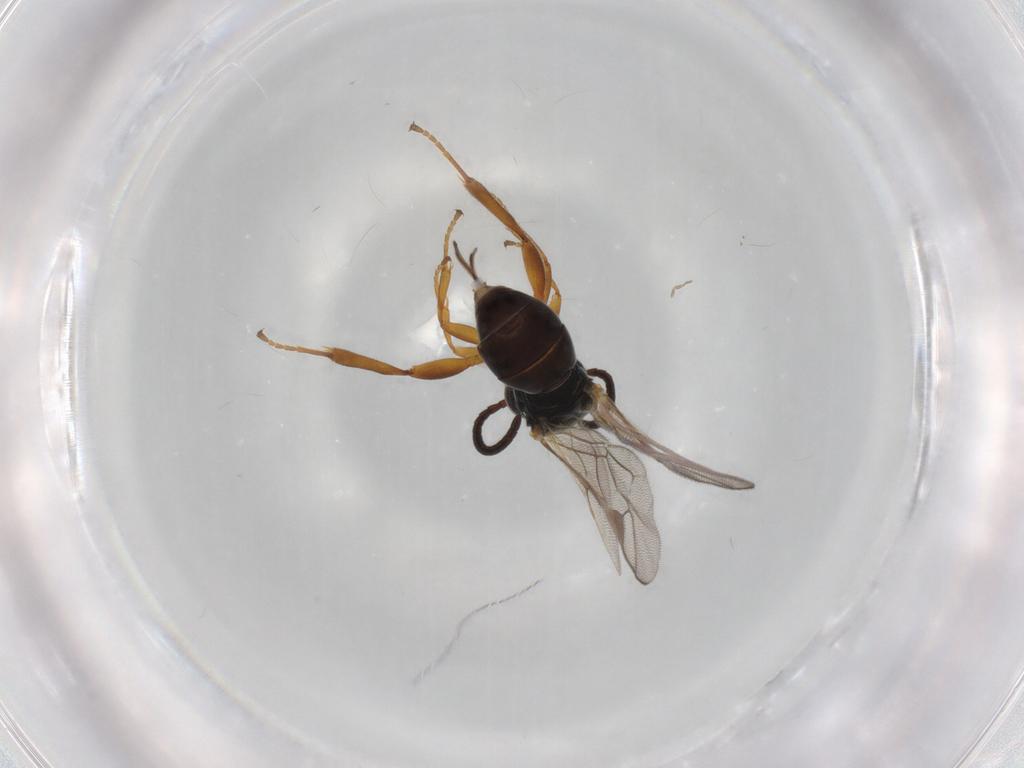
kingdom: Animalia
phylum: Arthropoda
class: Insecta
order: Hymenoptera
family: Ichneumonidae
